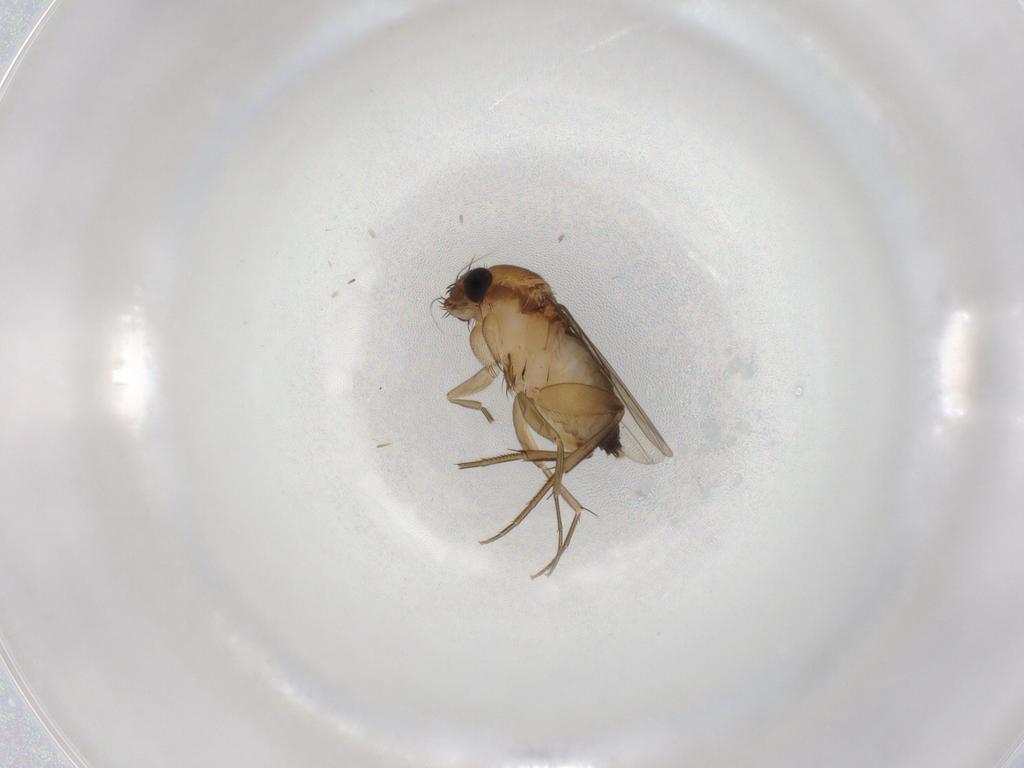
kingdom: Animalia
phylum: Arthropoda
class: Insecta
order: Diptera
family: Phoridae
